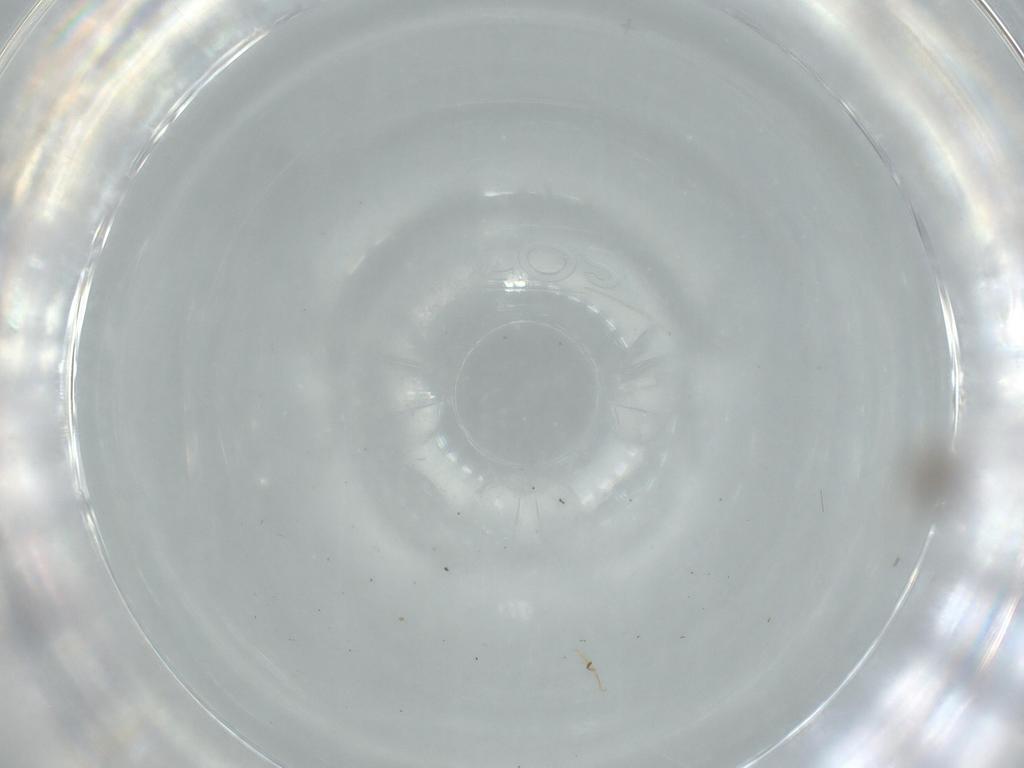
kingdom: Animalia
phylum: Arthropoda
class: Insecta
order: Diptera
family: Cecidomyiidae
